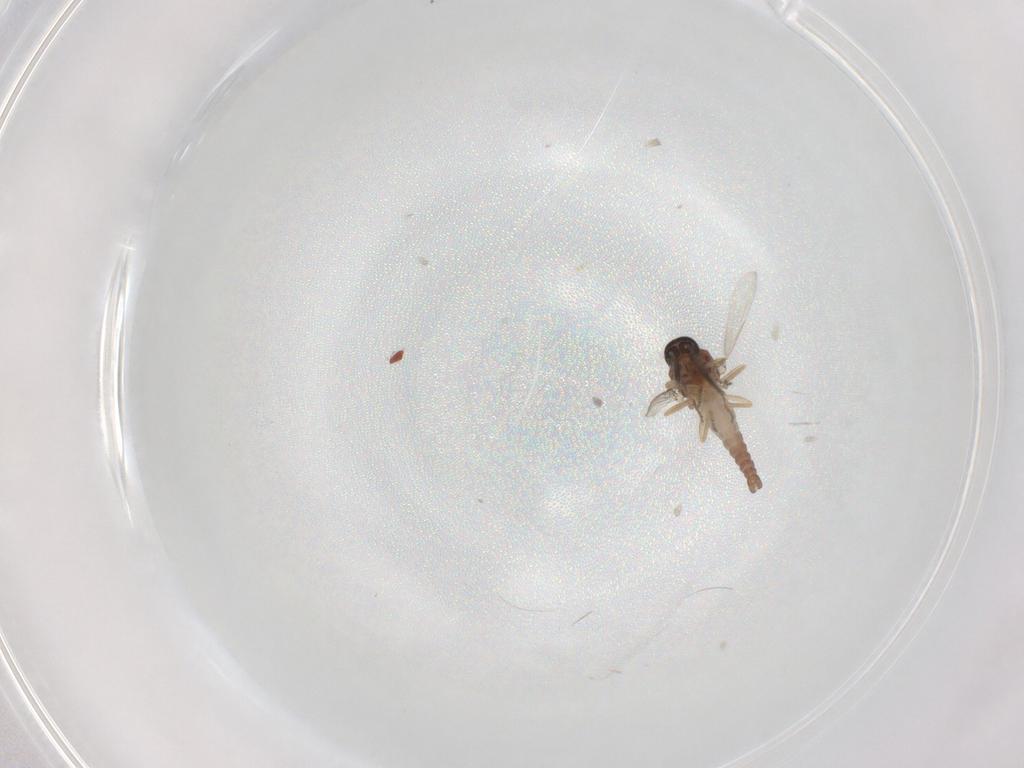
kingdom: Animalia
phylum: Arthropoda
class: Insecta
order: Diptera
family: Ceratopogonidae
